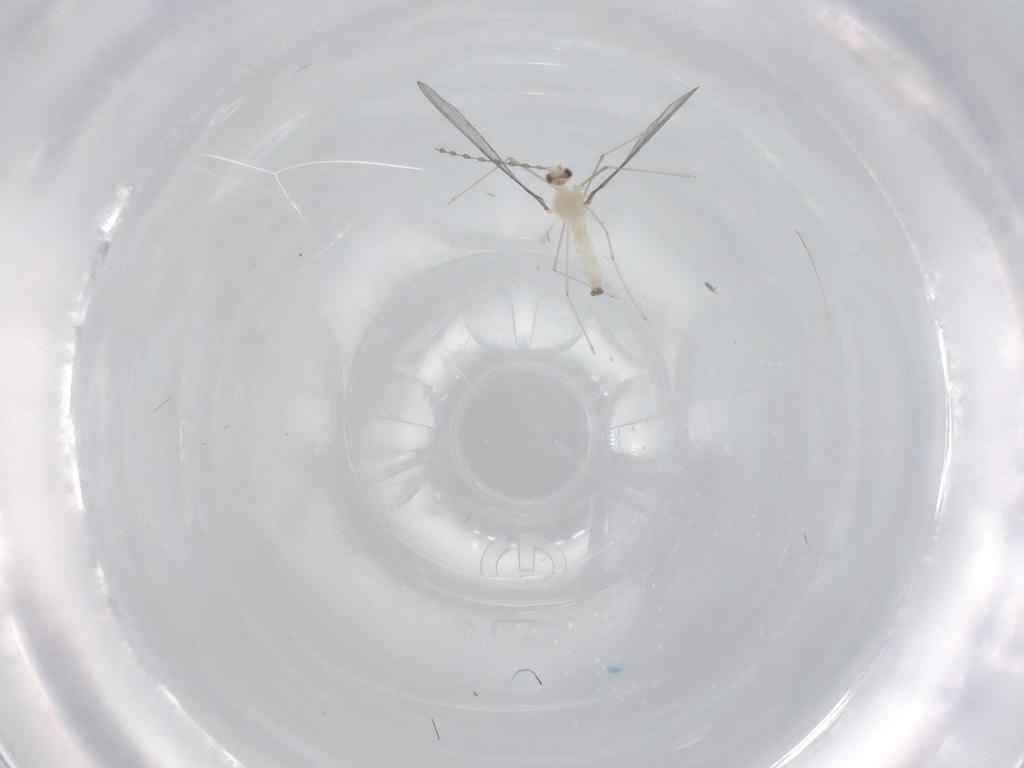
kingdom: Animalia
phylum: Arthropoda
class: Insecta
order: Diptera
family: Cecidomyiidae
